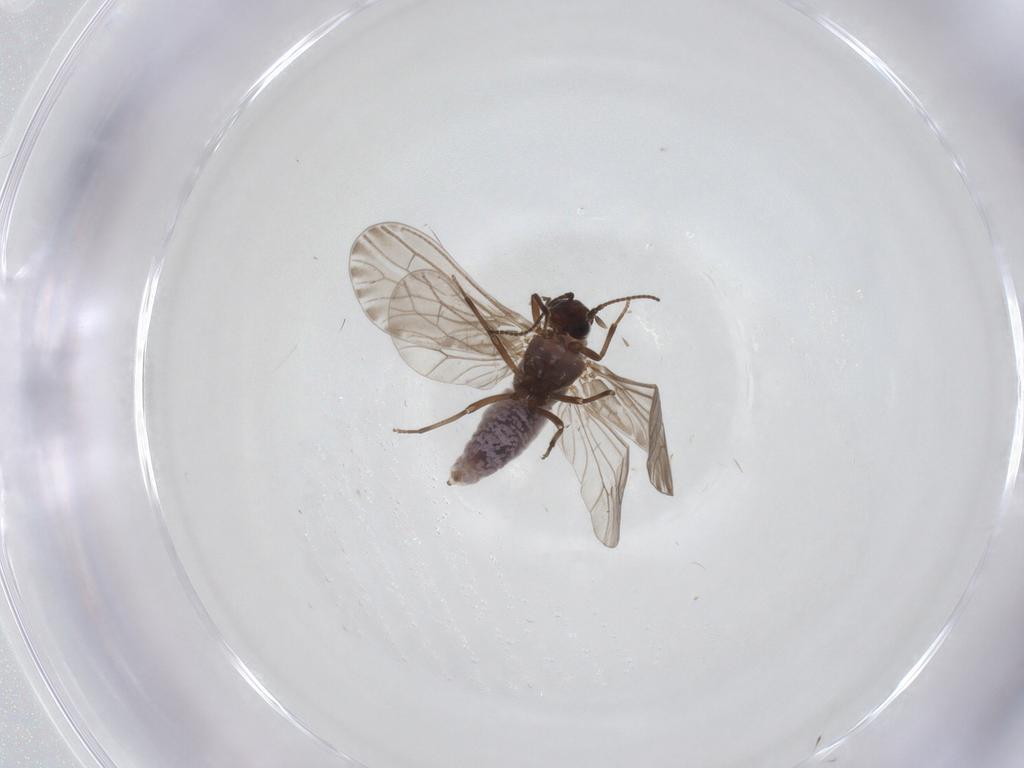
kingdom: Animalia
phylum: Arthropoda
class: Insecta
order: Neuroptera
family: Coniopterygidae
